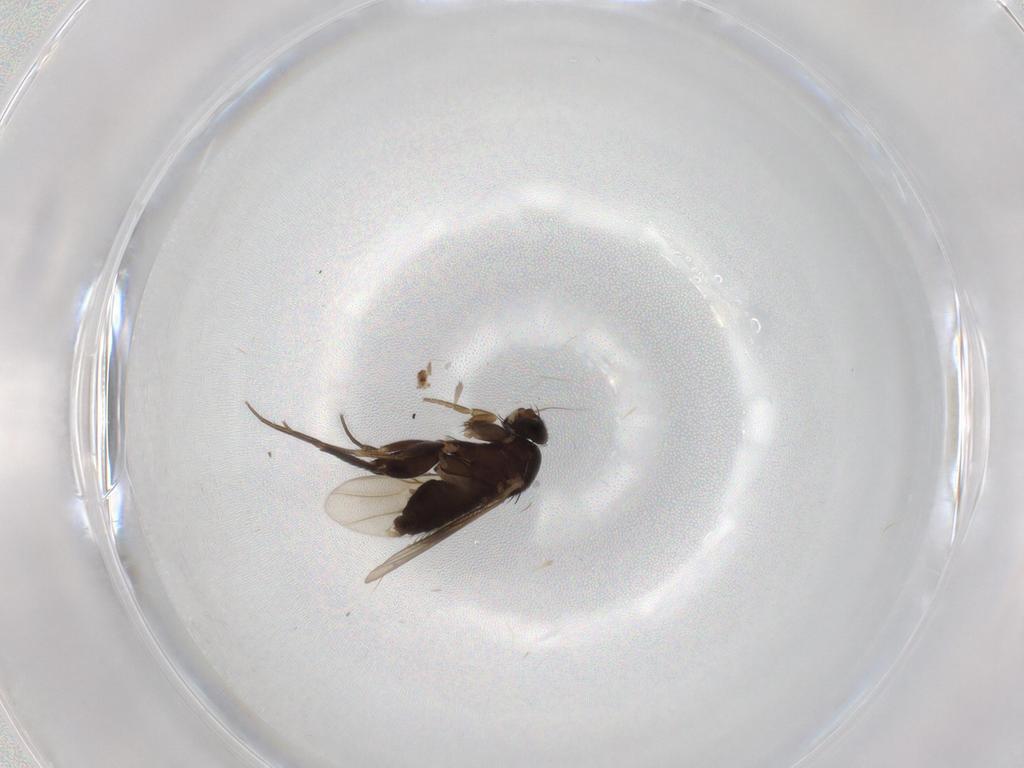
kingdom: Animalia
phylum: Arthropoda
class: Insecta
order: Diptera
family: Phoridae
